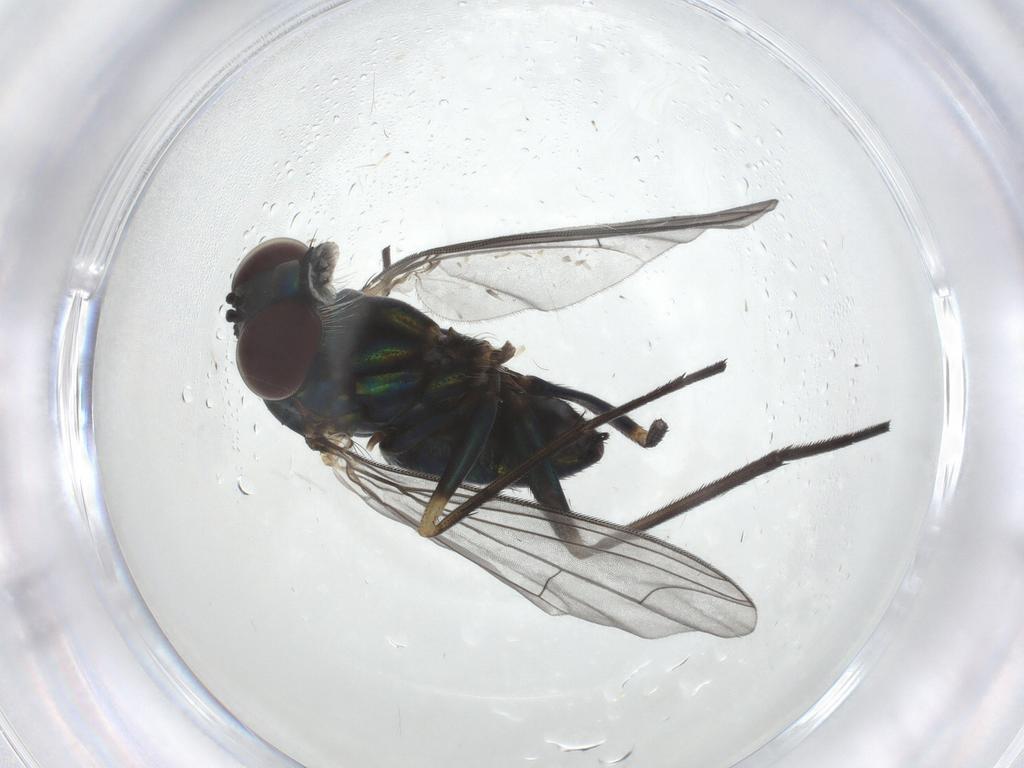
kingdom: Animalia
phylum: Arthropoda
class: Insecta
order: Diptera
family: Dolichopodidae
